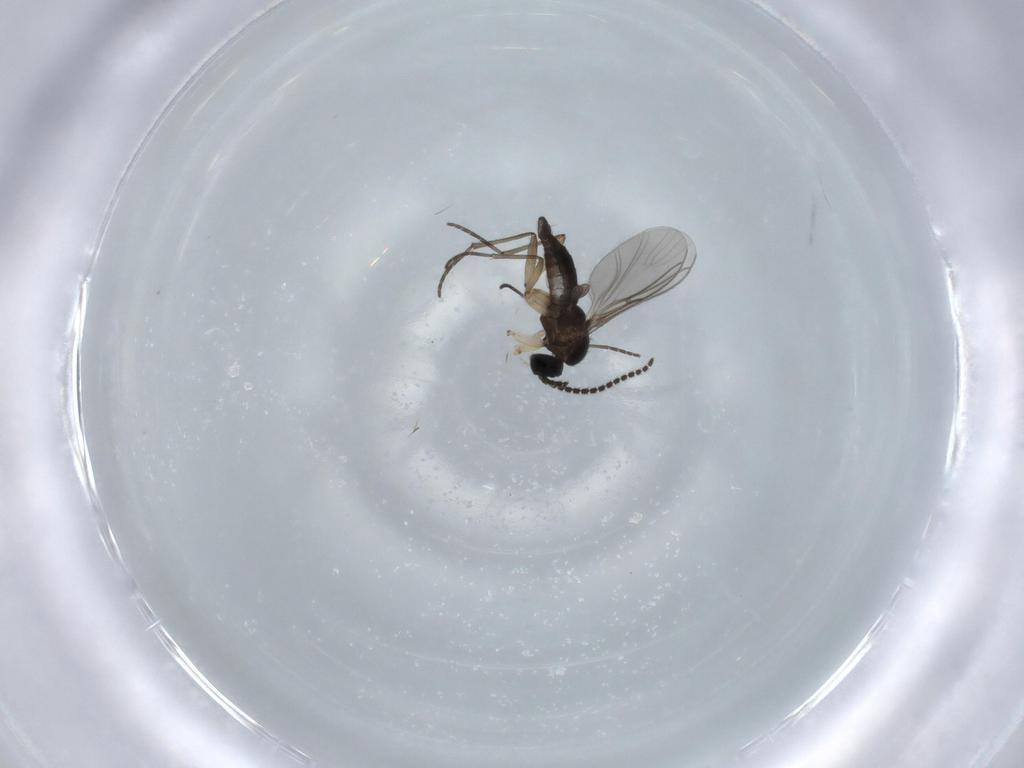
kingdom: Animalia
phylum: Arthropoda
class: Insecta
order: Diptera
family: Sciaridae
